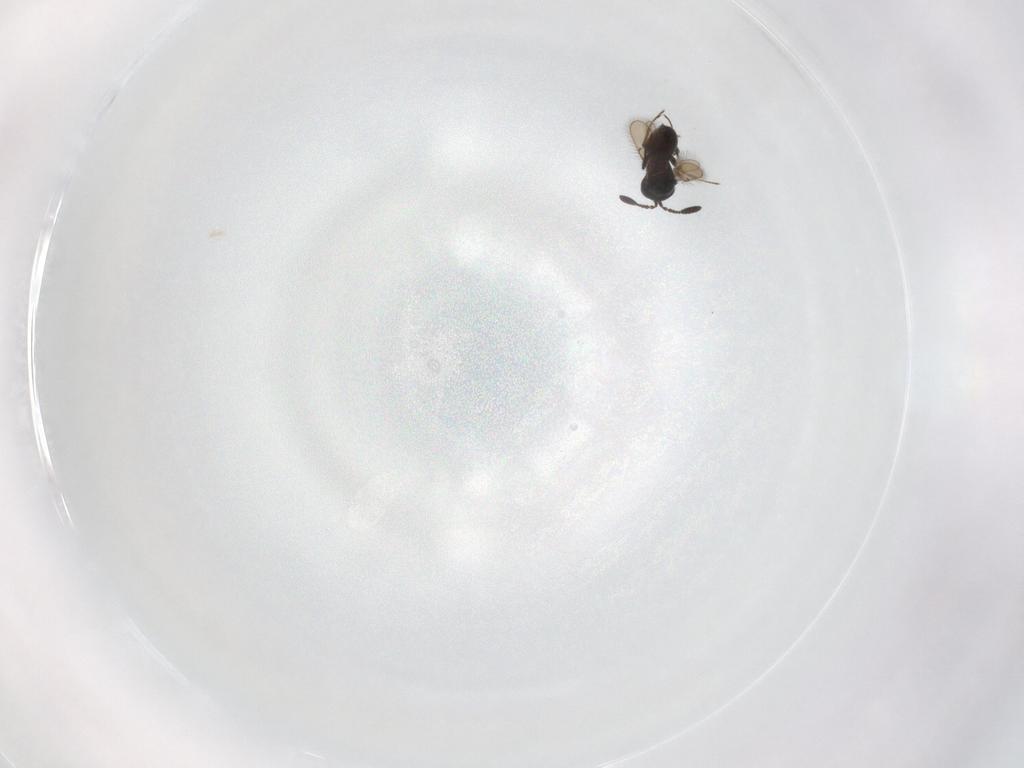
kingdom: Animalia
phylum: Arthropoda
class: Insecta
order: Hymenoptera
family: Scelionidae
